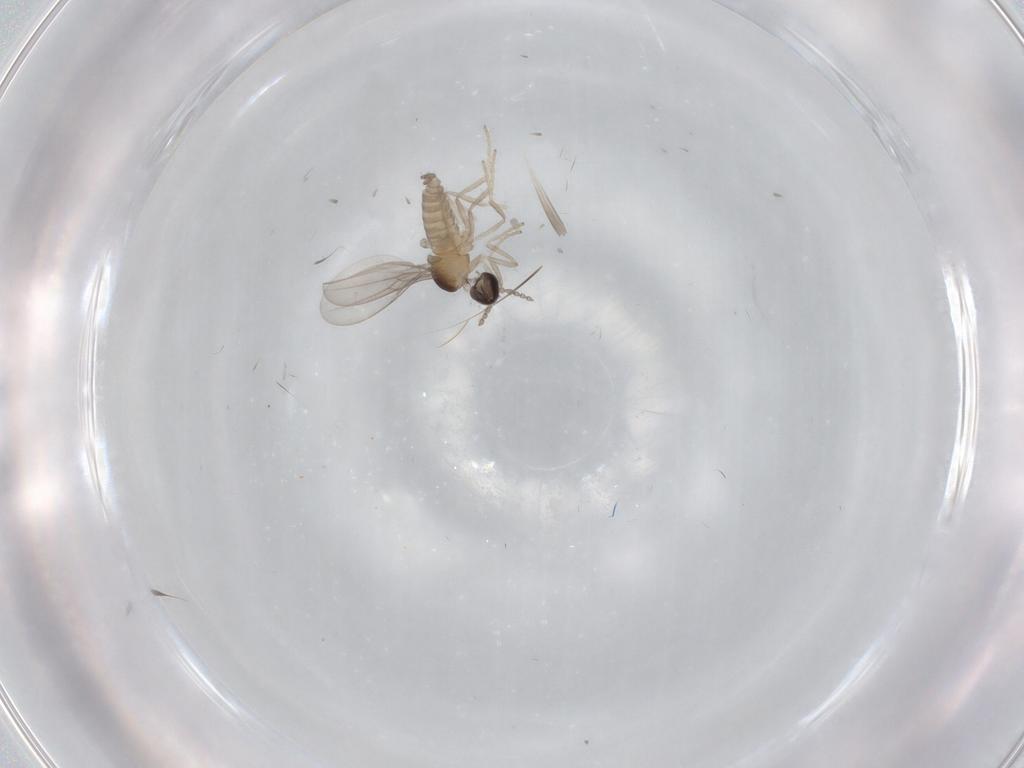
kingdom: Animalia
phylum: Arthropoda
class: Insecta
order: Diptera
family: Cecidomyiidae
